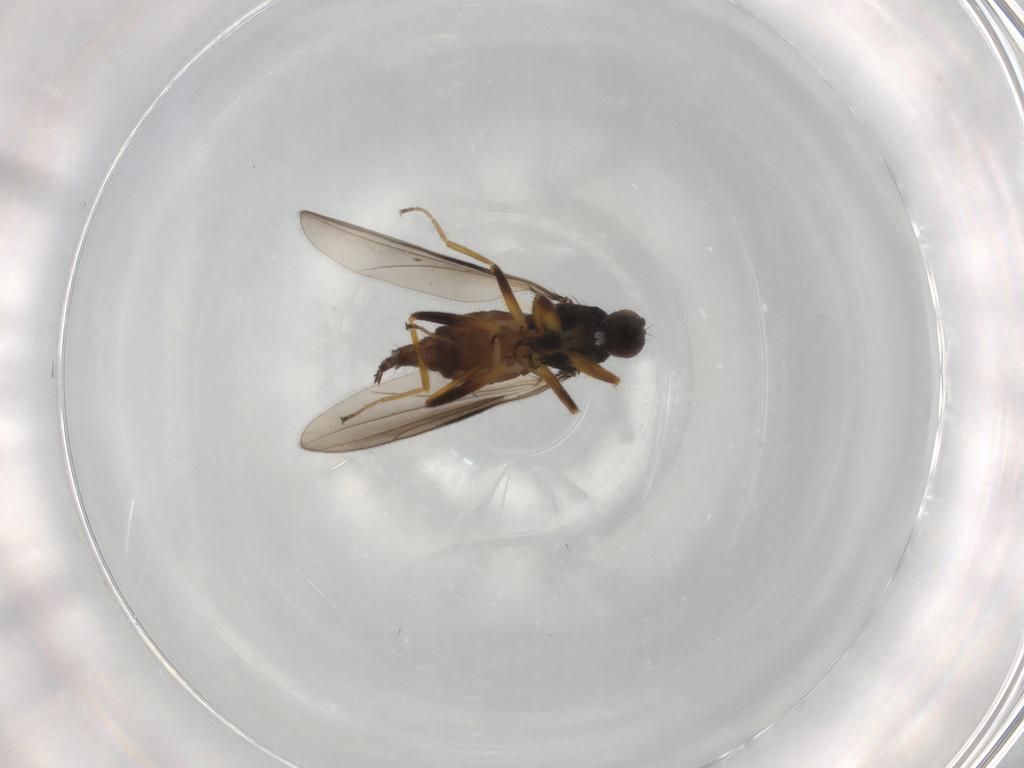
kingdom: Animalia
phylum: Arthropoda
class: Insecta
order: Diptera
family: Hybotidae
